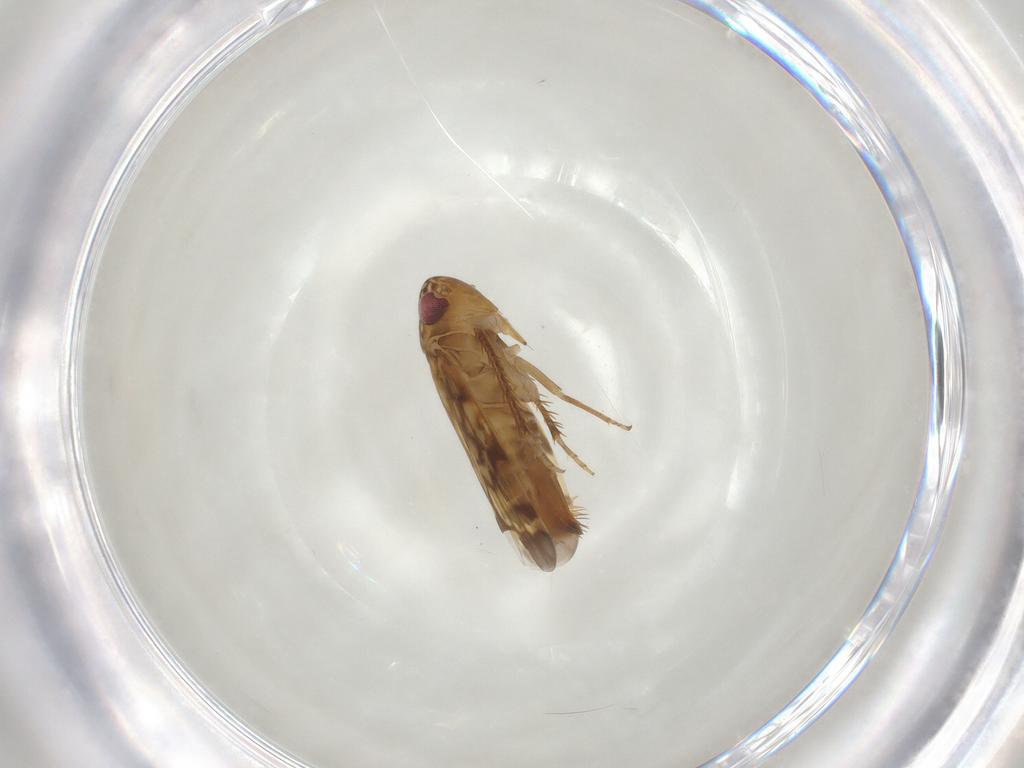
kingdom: Animalia
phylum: Arthropoda
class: Insecta
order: Hemiptera
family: Cicadellidae
